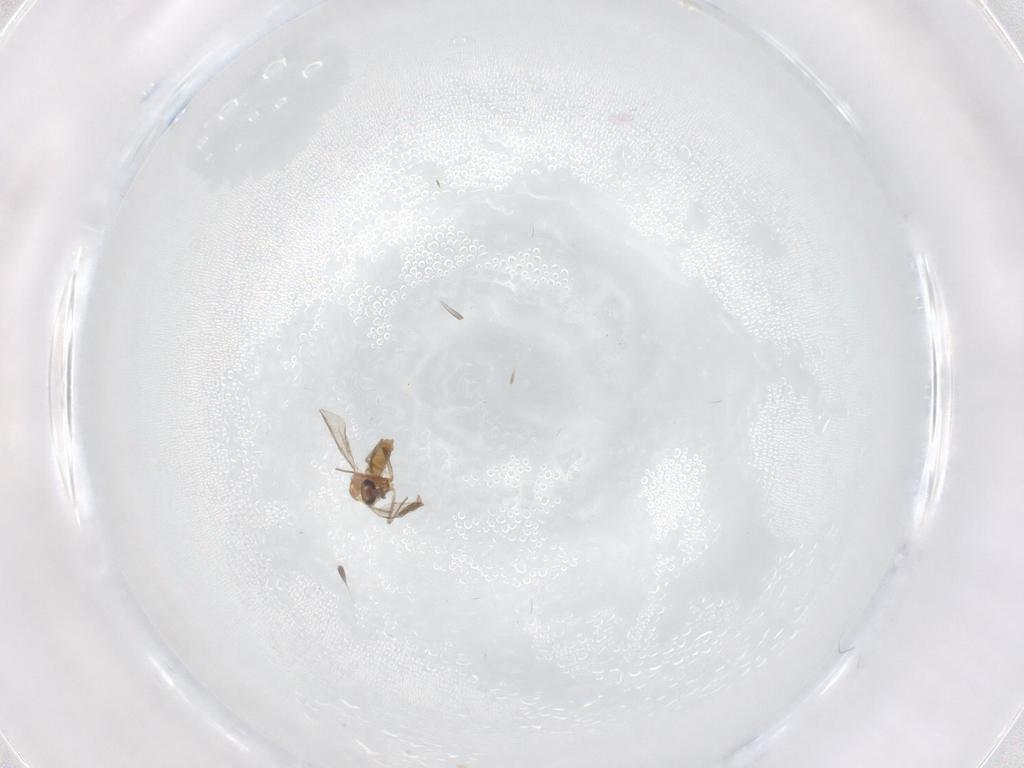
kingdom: Animalia
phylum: Arthropoda
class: Insecta
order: Diptera
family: Chironomidae
